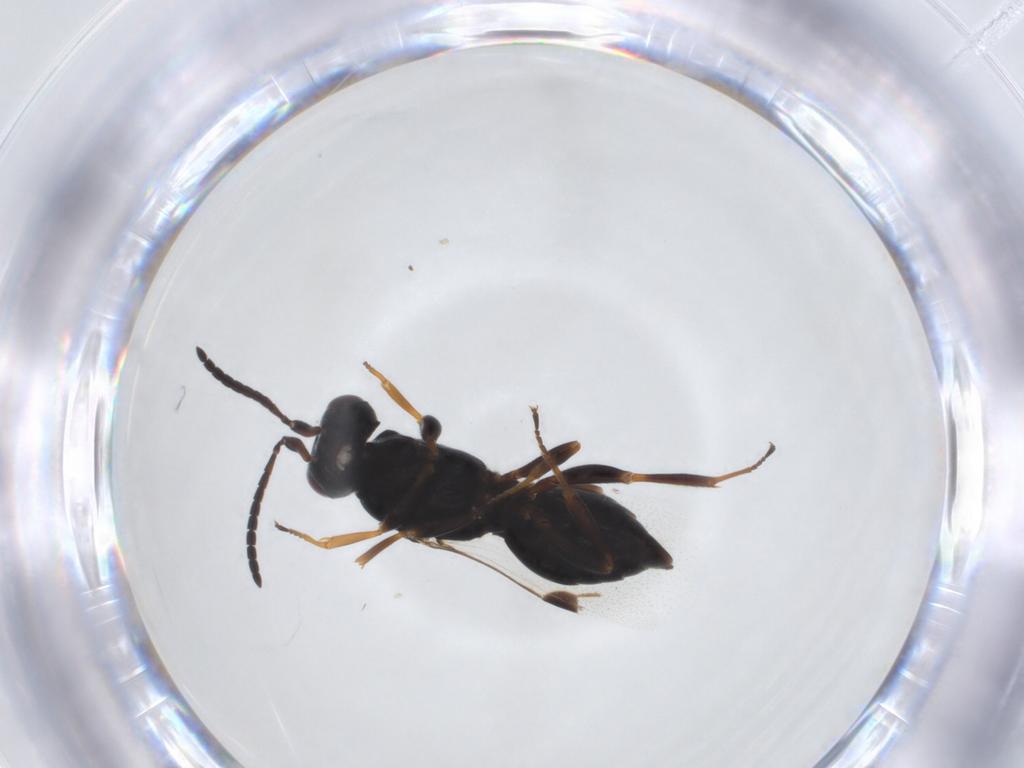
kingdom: Animalia
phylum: Arthropoda
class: Insecta
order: Hymenoptera
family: Megaspilidae
